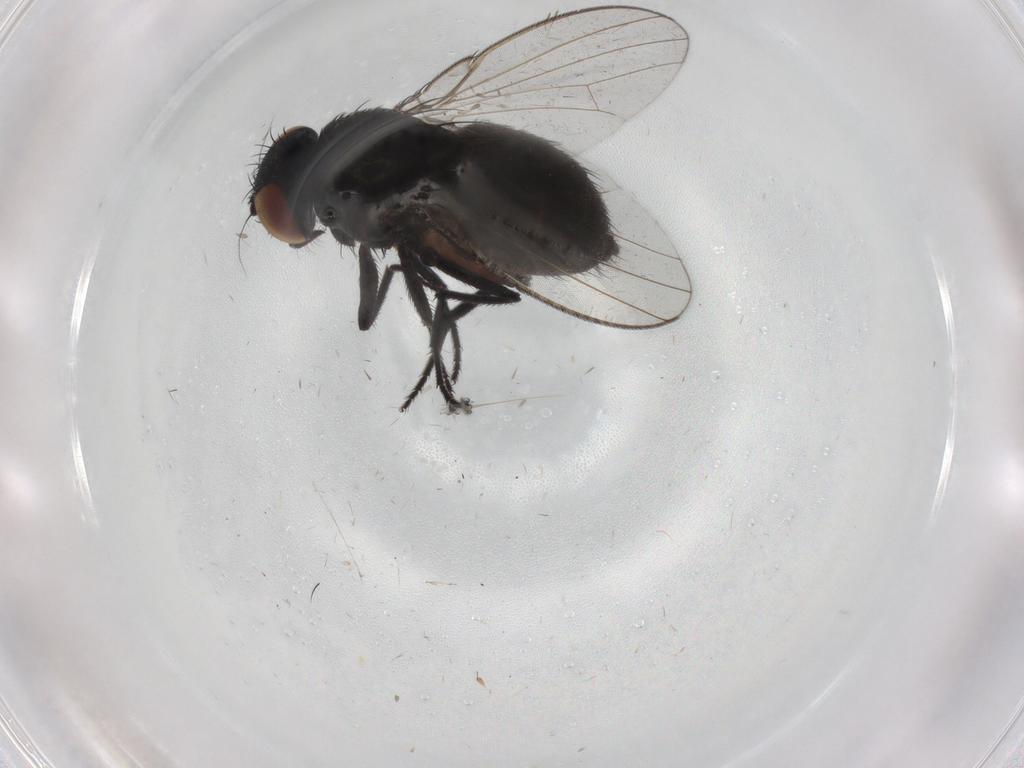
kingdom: Animalia
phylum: Arthropoda
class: Insecta
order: Diptera
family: Milichiidae
